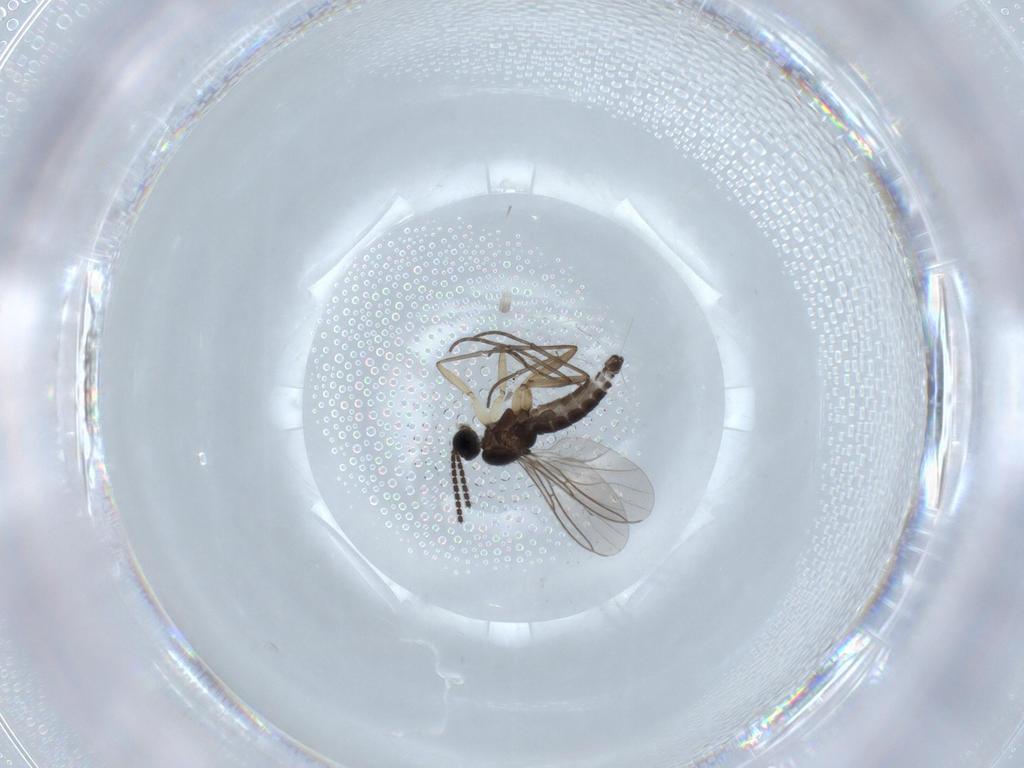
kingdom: Animalia
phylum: Arthropoda
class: Insecta
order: Diptera
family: Sciaridae
